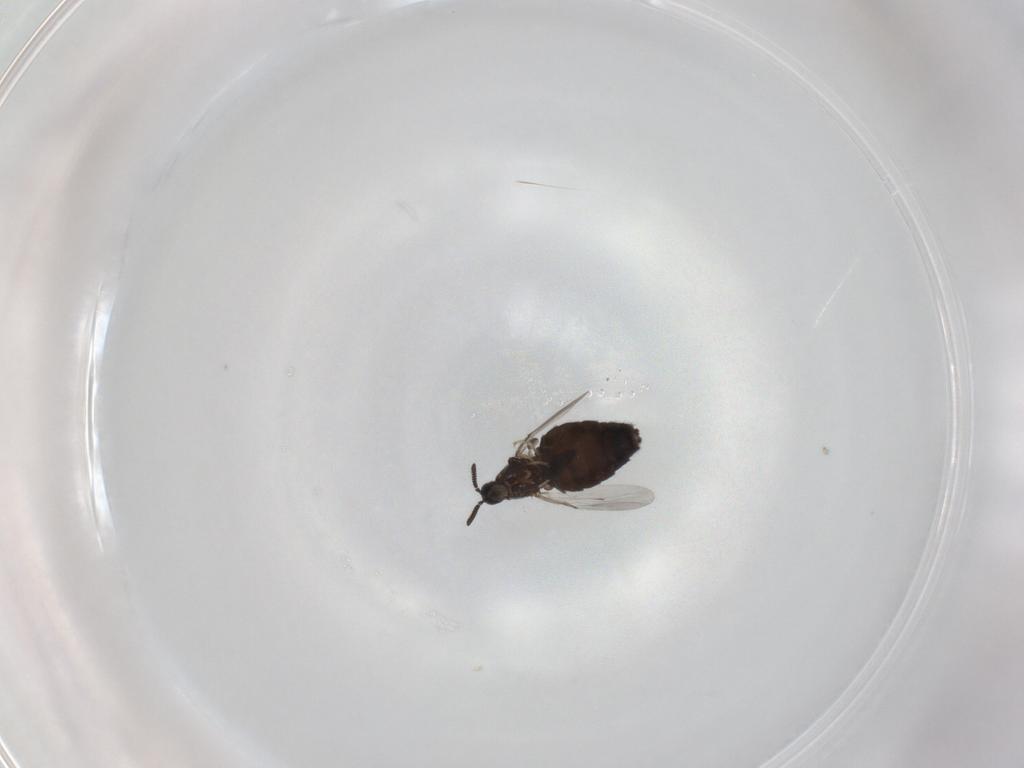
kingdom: Animalia
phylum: Arthropoda
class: Insecta
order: Diptera
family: Scatopsidae
